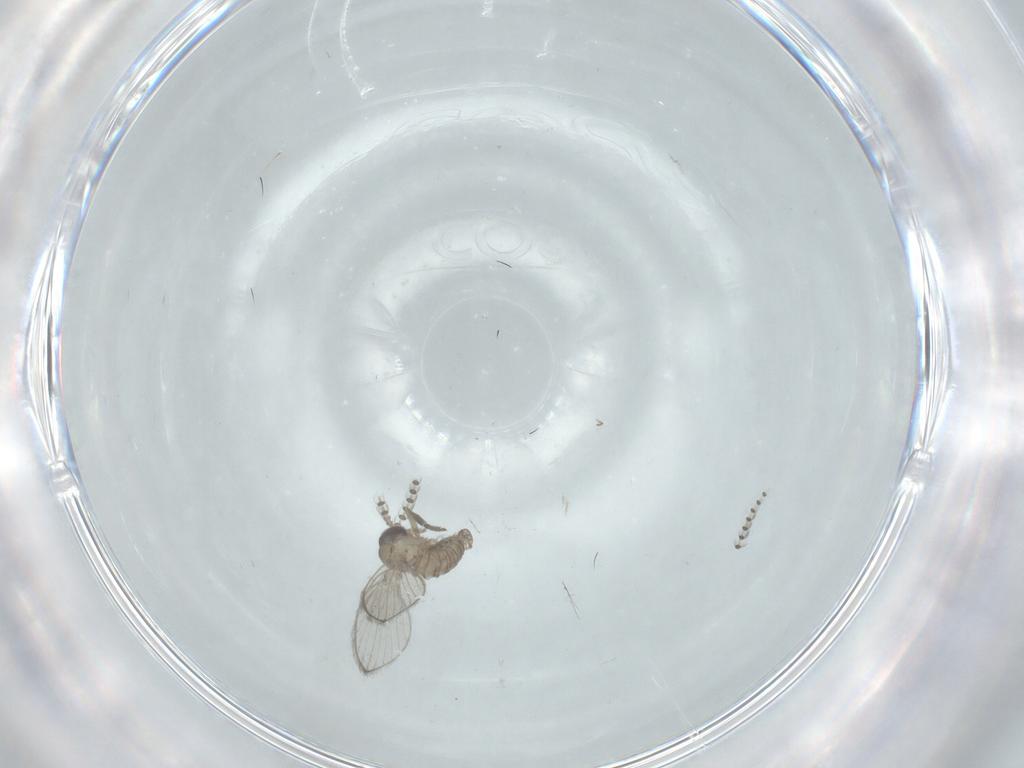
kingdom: Animalia
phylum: Arthropoda
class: Insecta
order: Diptera
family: Psychodidae
